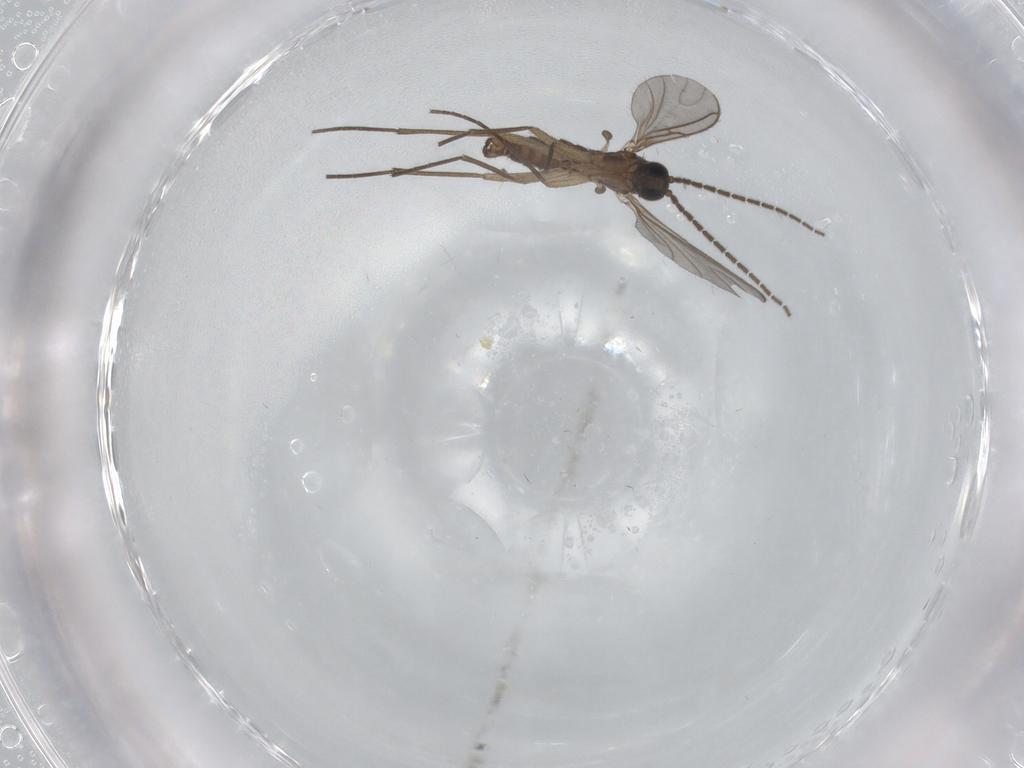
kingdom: Animalia
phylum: Arthropoda
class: Insecta
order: Diptera
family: Sciaridae
